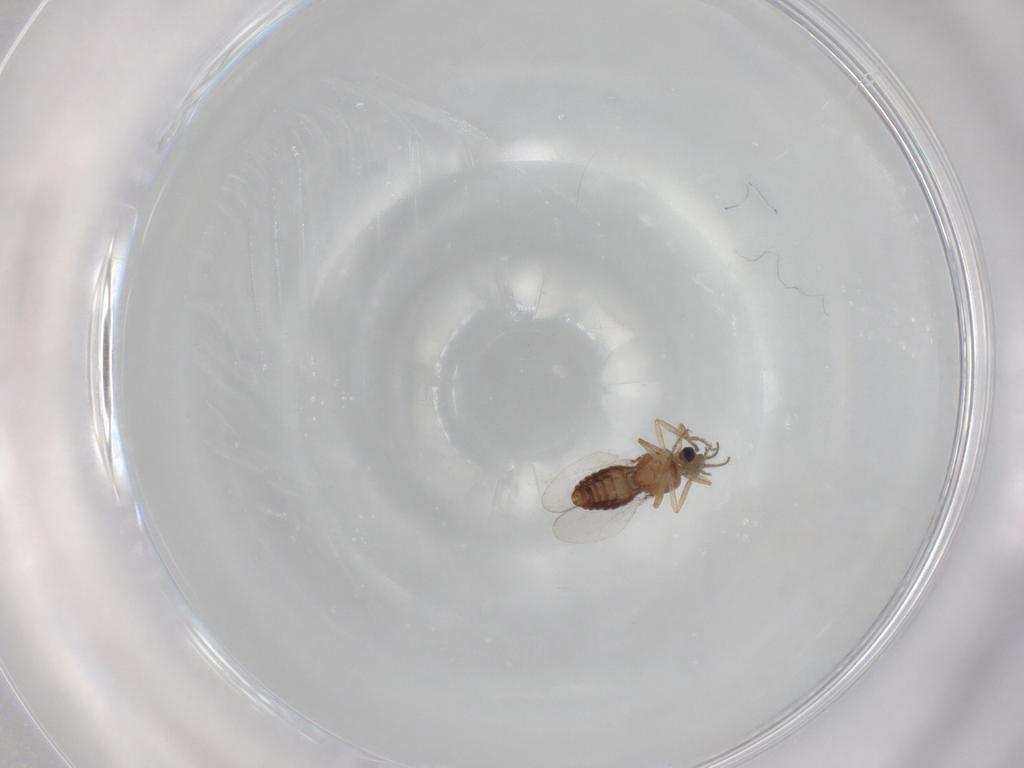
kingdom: Animalia
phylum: Arthropoda
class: Insecta
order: Diptera
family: Ceratopogonidae
